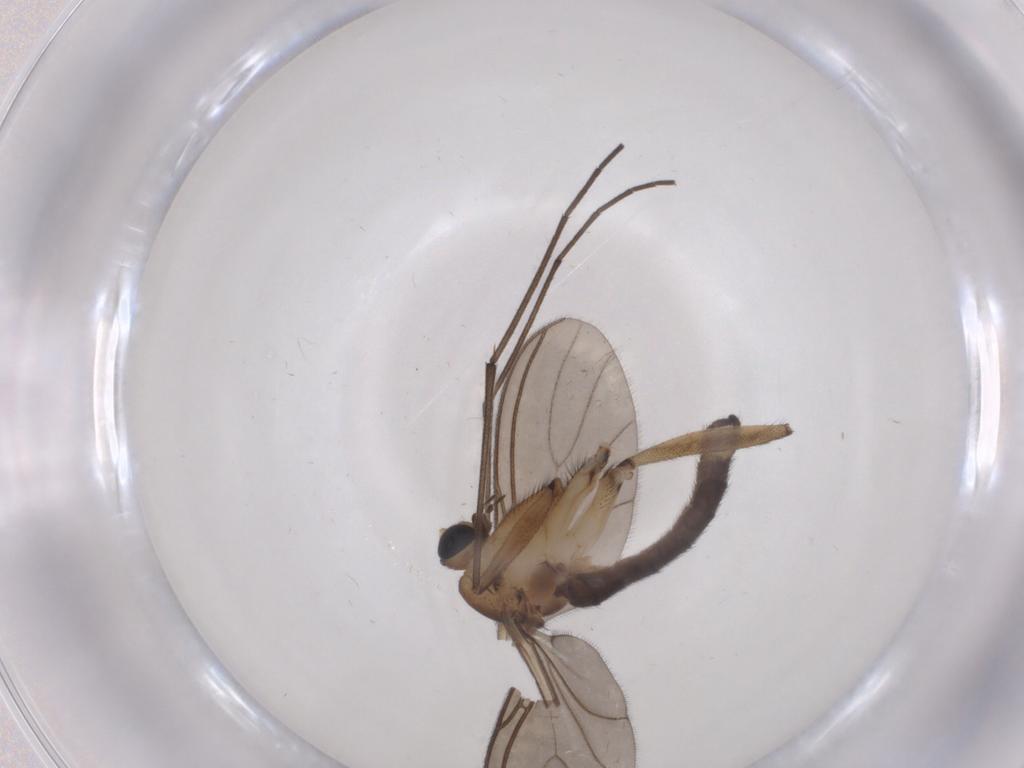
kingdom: Animalia
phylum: Arthropoda
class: Insecta
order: Diptera
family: Sciaridae
